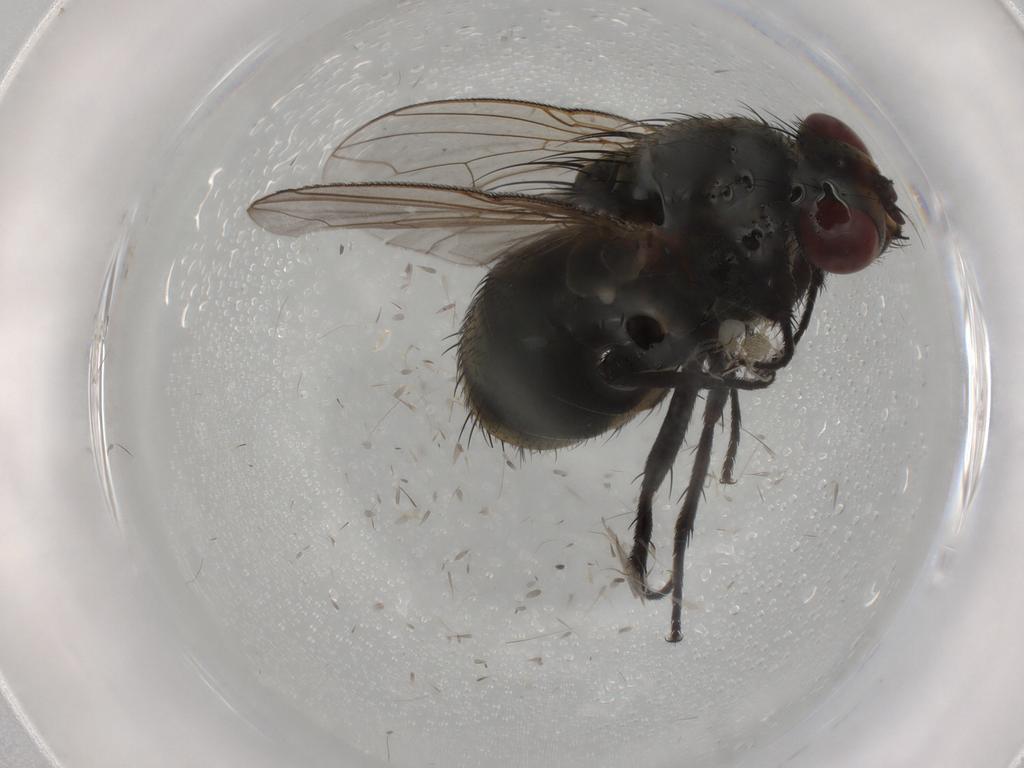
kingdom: Animalia
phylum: Arthropoda
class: Insecta
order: Diptera
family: Sarcophagidae
